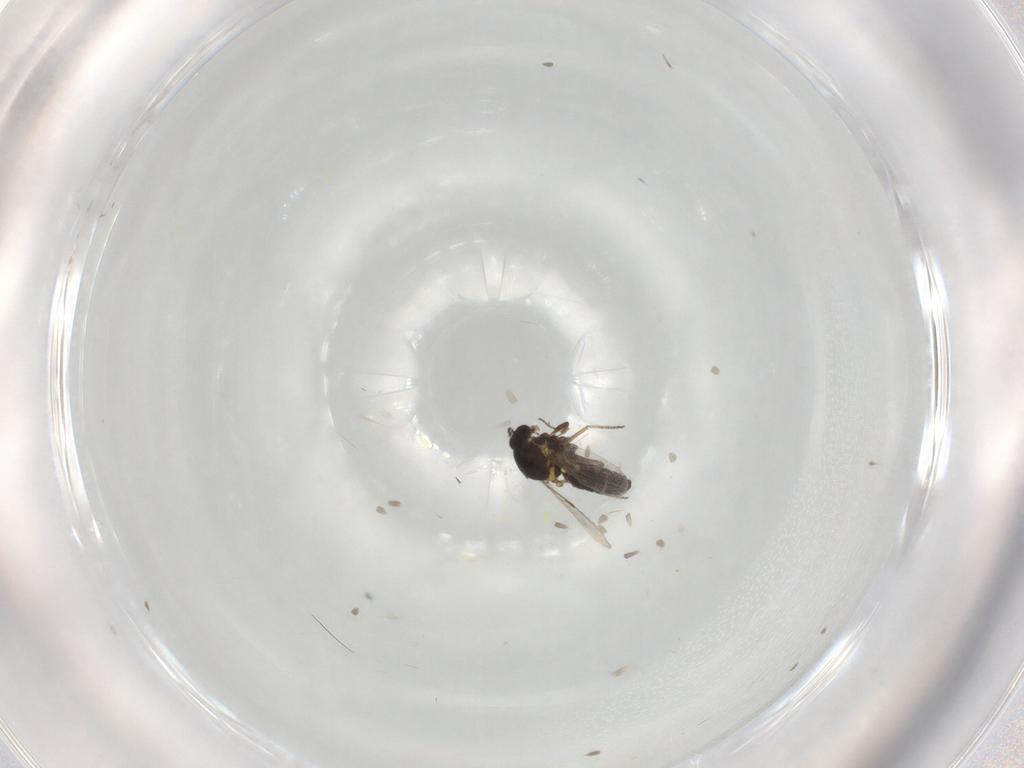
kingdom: Animalia
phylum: Arthropoda
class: Insecta
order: Diptera
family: Ceratopogonidae
